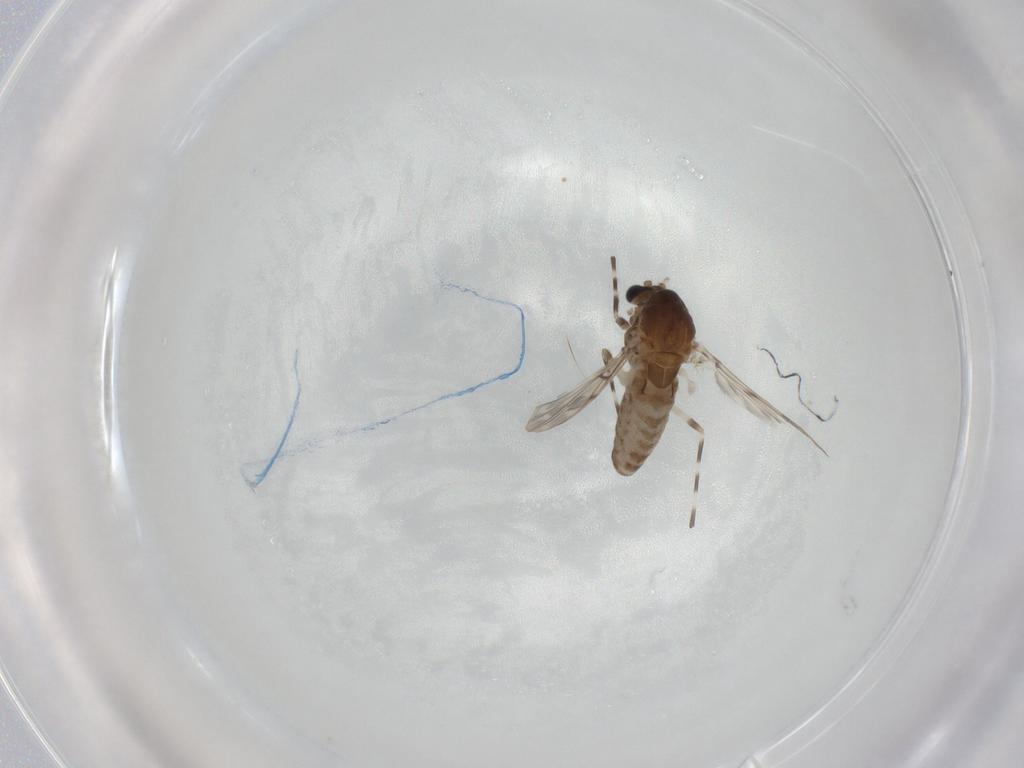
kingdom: Animalia
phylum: Arthropoda
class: Insecta
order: Diptera
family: Chironomidae
